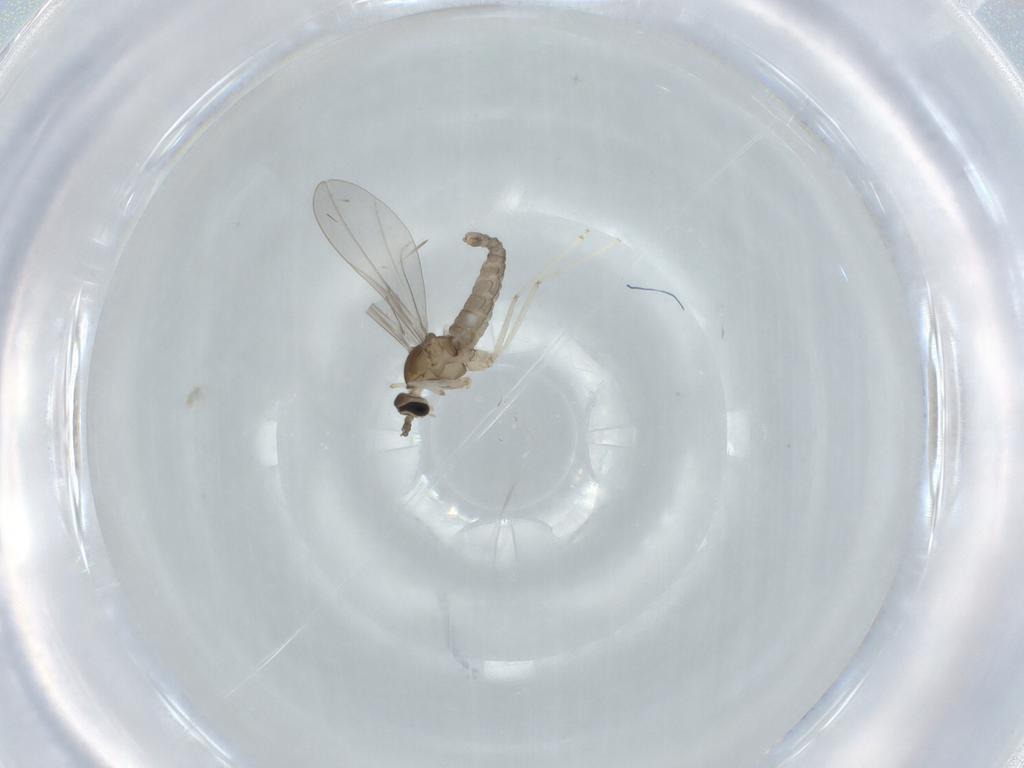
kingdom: Animalia
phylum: Arthropoda
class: Insecta
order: Diptera
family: Cecidomyiidae
